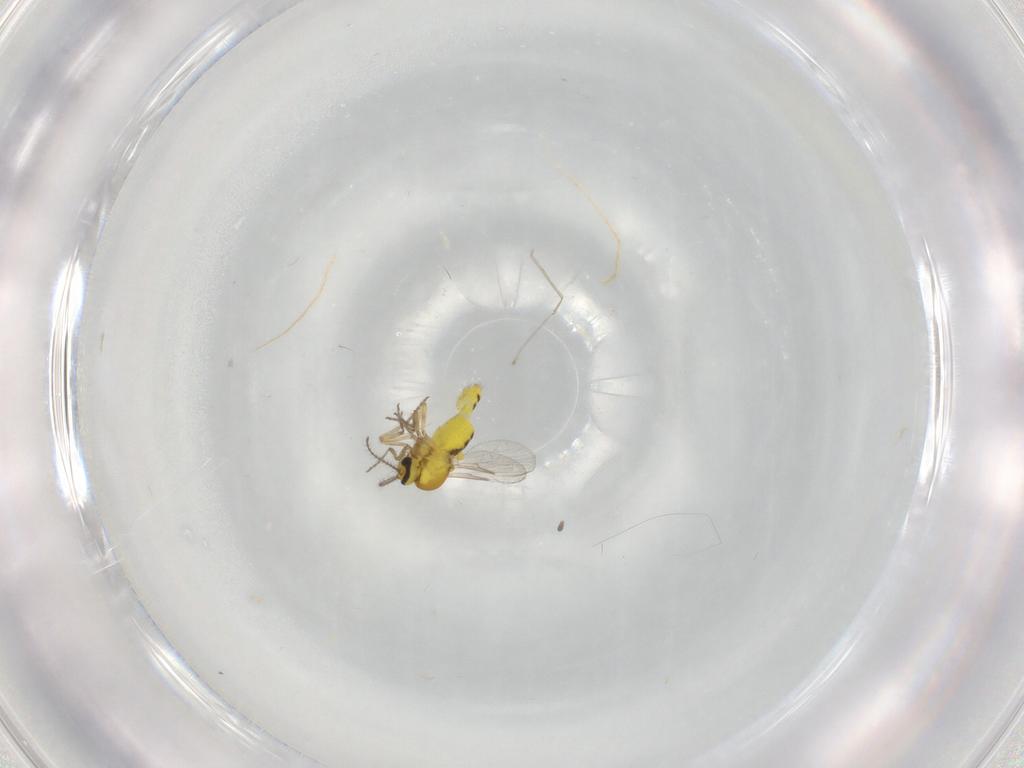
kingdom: Animalia
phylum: Arthropoda
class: Insecta
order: Diptera
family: Ceratopogonidae
